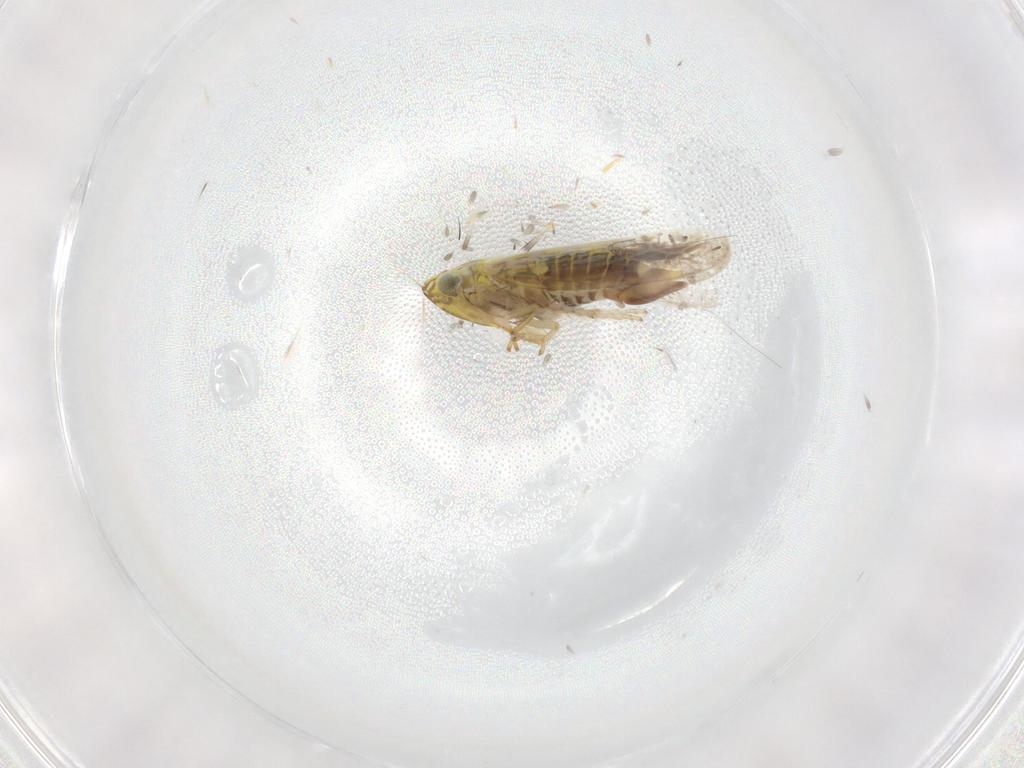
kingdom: Animalia
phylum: Arthropoda
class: Insecta
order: Hemiptera
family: Cicadellidae
